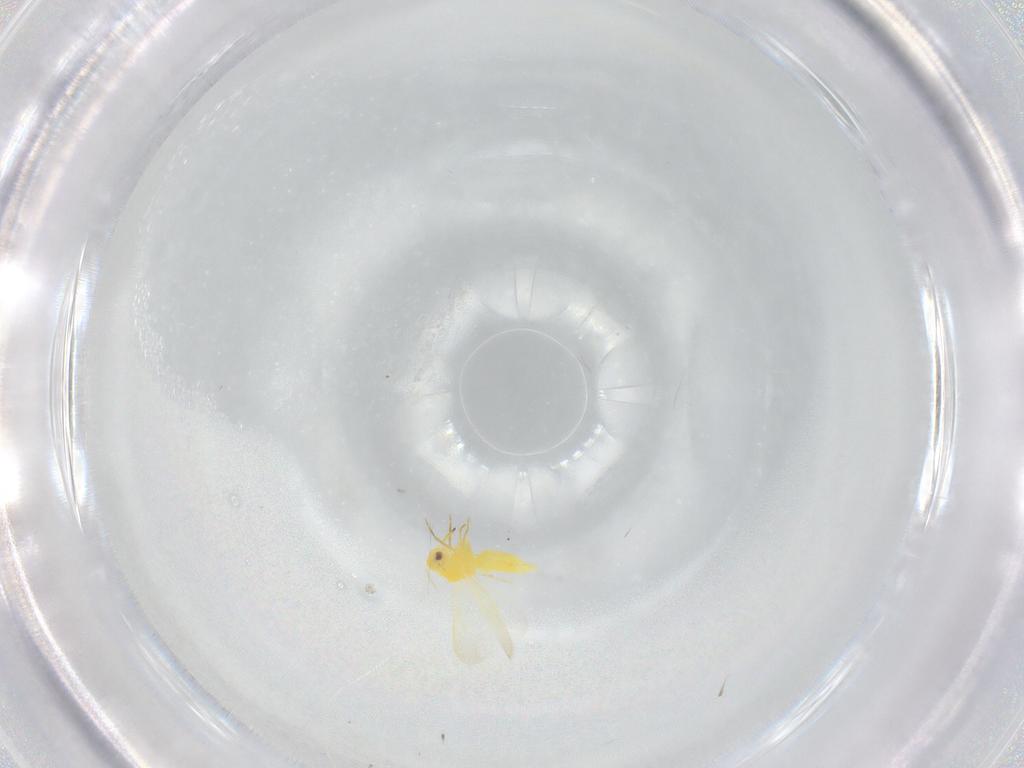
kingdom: Animalia
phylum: Arthropoda
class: Insecta
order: Hemiptera
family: Aleyrodidae
